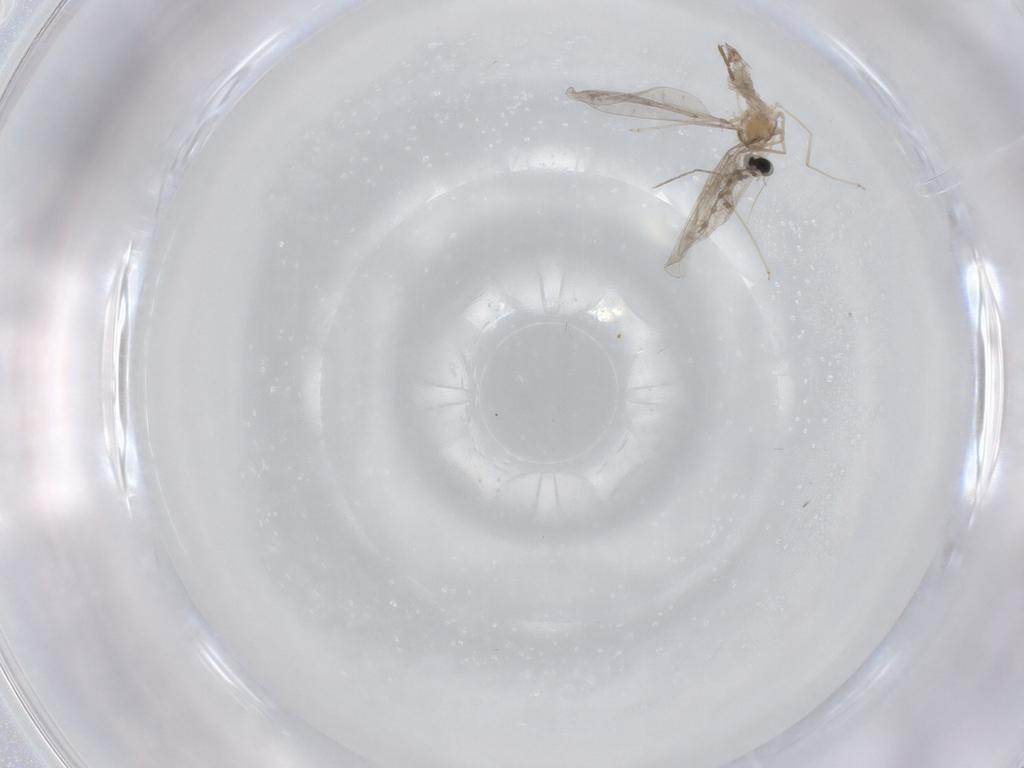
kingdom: Animalia
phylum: Arthropoda
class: Insecta
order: Diptera
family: Cecidomyiidae
